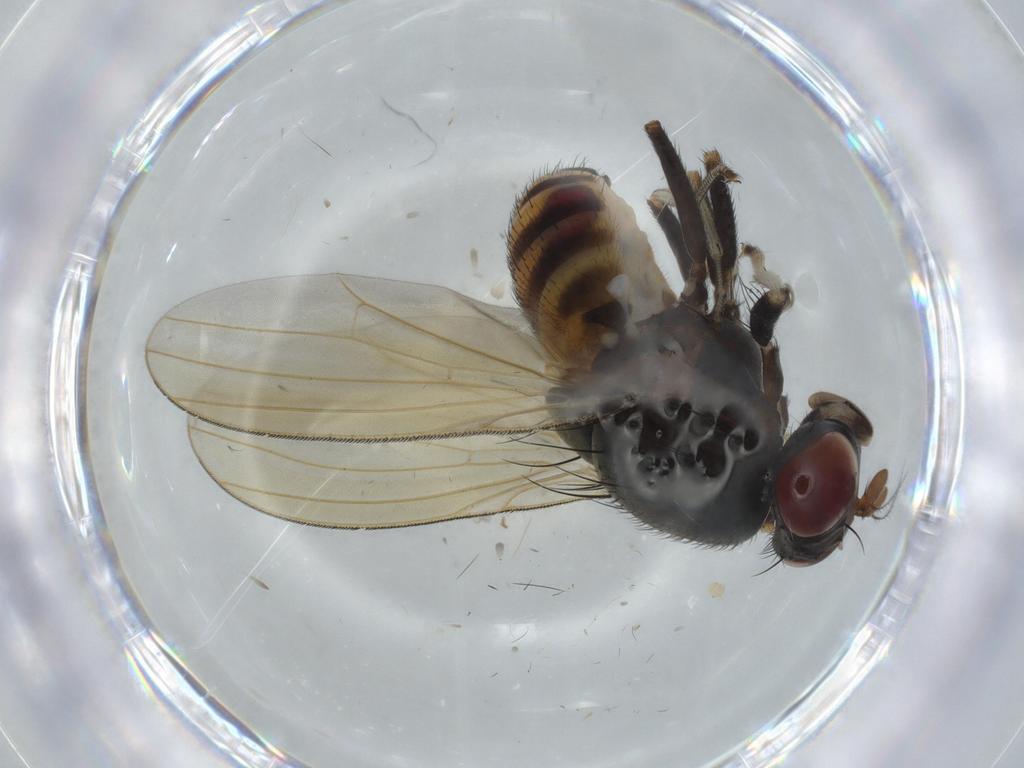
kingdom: Animalia
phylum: Arthropoda
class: Insecta
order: Diptera
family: Lauxaniidae
